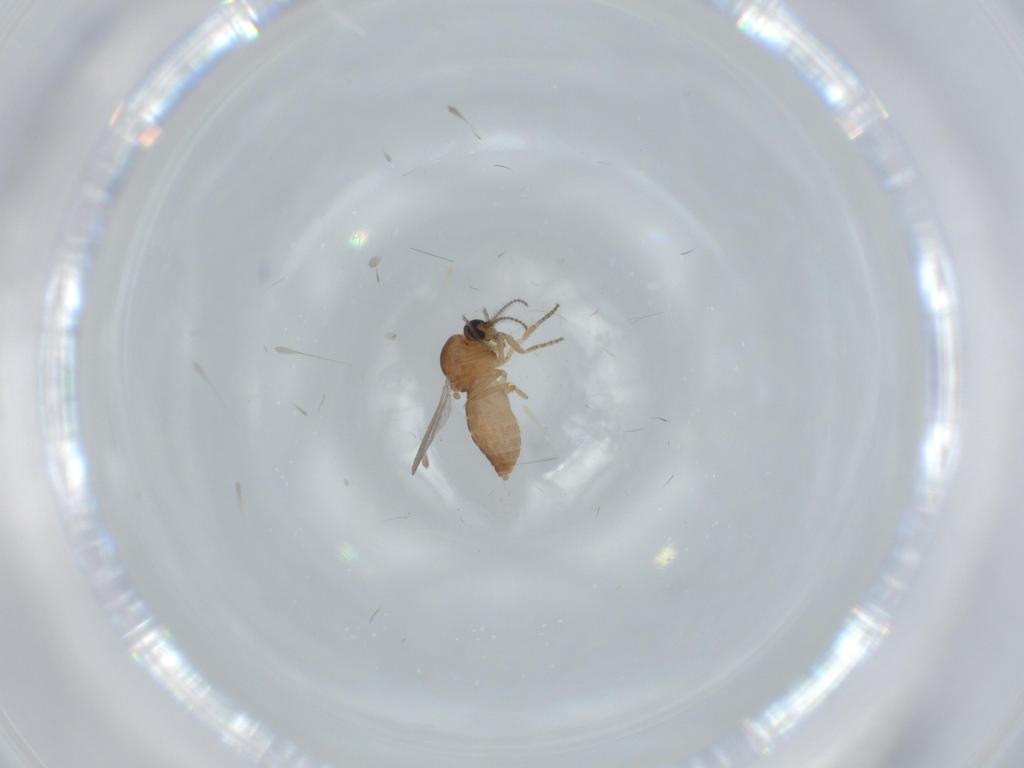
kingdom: Animalia
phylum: Arthropoda
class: Insecta
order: Diptera
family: Ceratopogonidae
